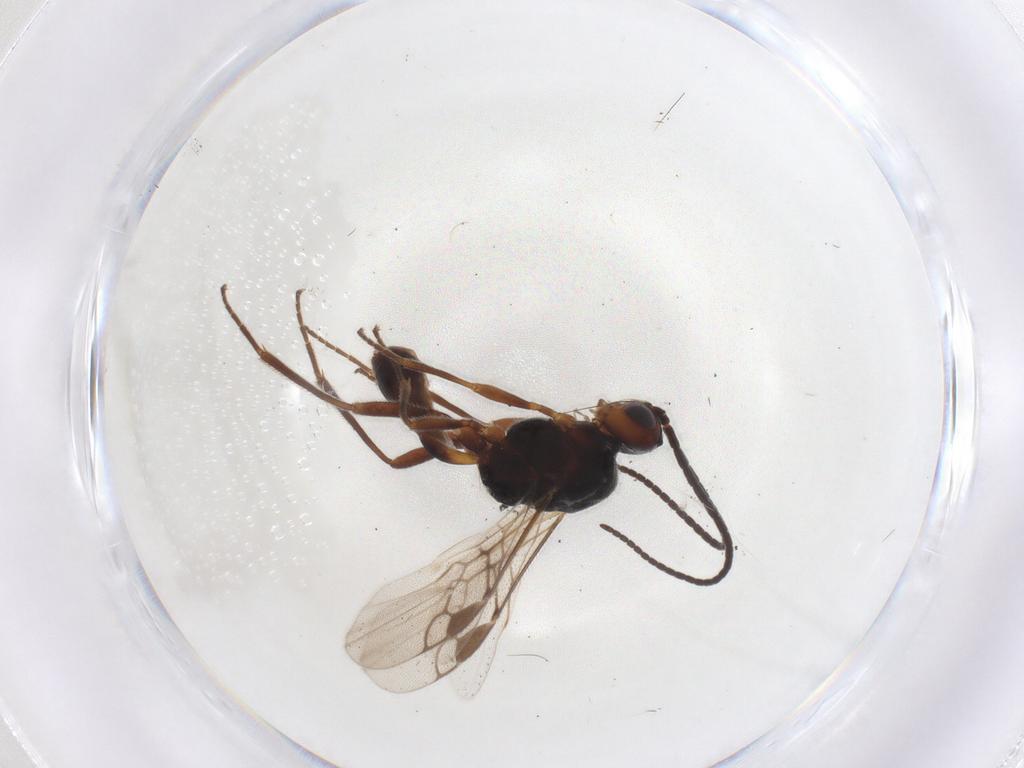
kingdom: Animalia
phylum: Arthropoda
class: Insecta
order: Hymenoptera
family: Braconidae
